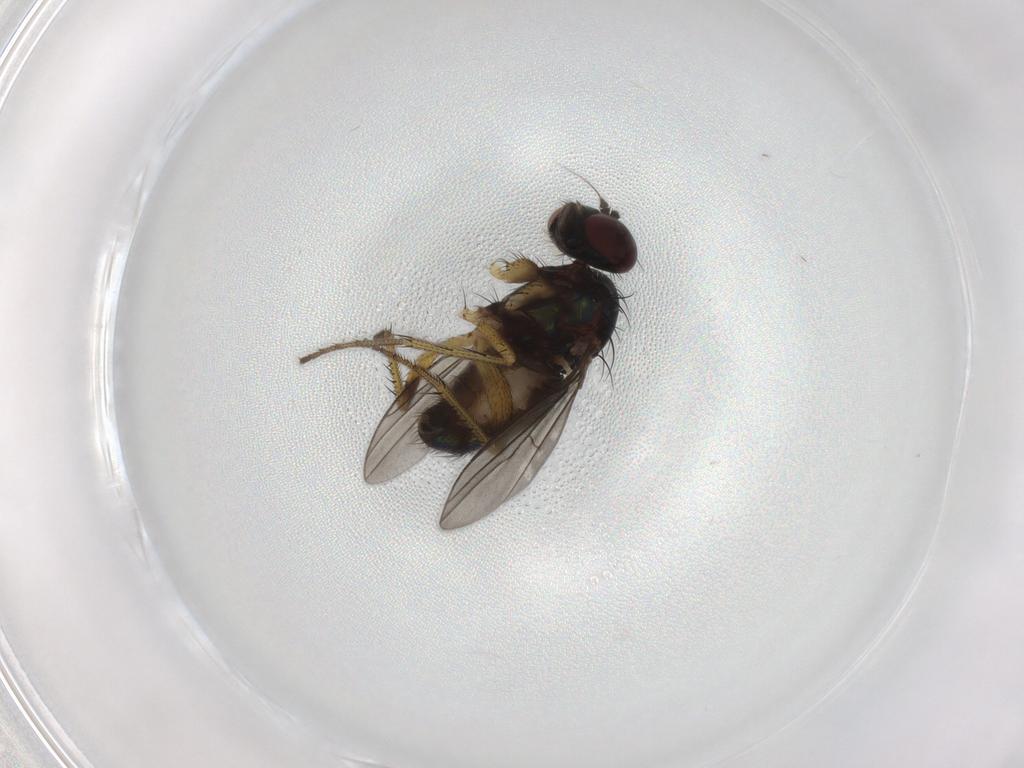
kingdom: Animalia
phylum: Arthropoda
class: Insecta
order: Diptera
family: Dolichopodidae
